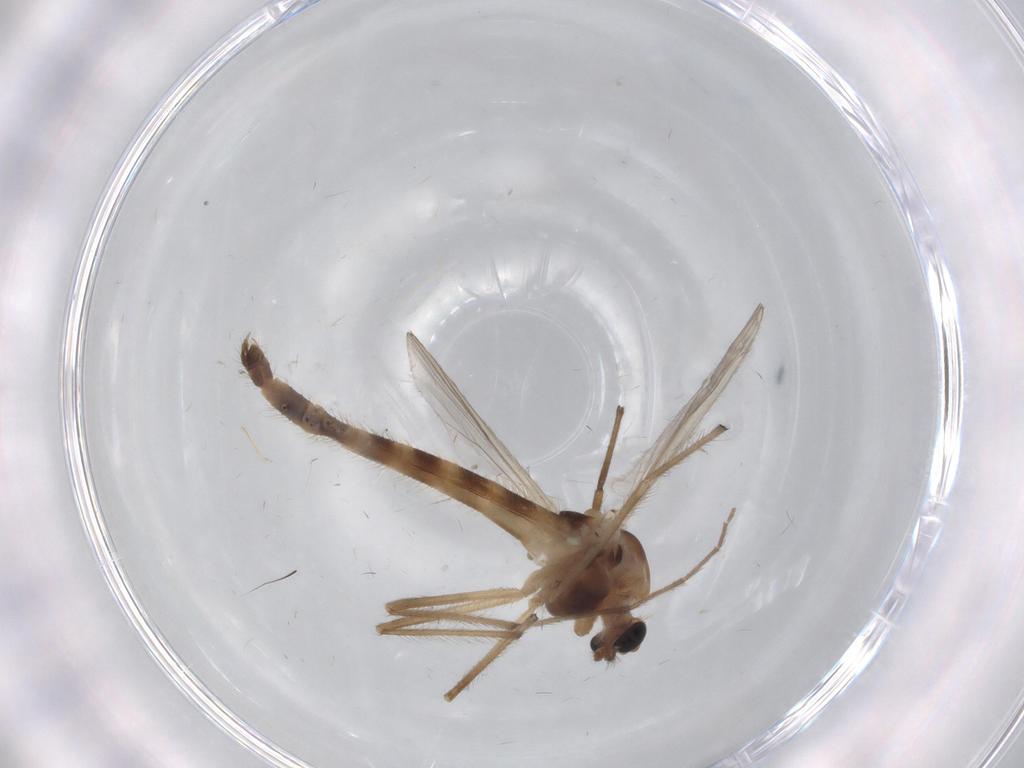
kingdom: Animalia
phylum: Arthropoda
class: Insecta
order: Diptera
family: Chironomidae
